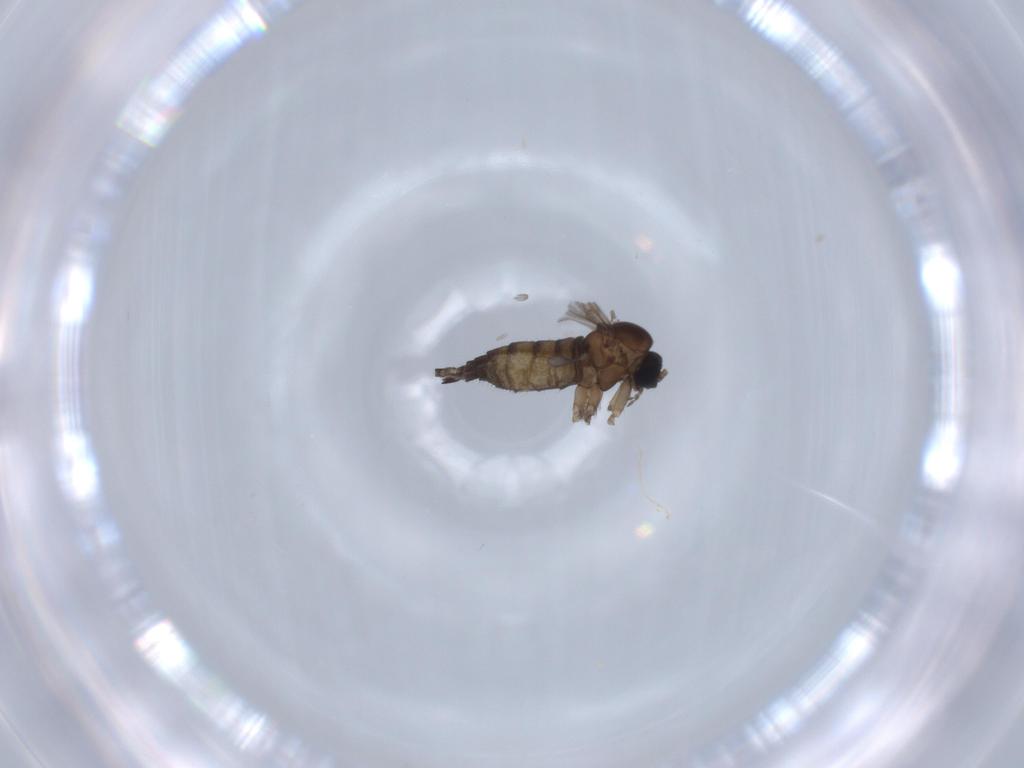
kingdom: Animalia
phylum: Arthropoda
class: Insecta
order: Diptera
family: Sciaridae
